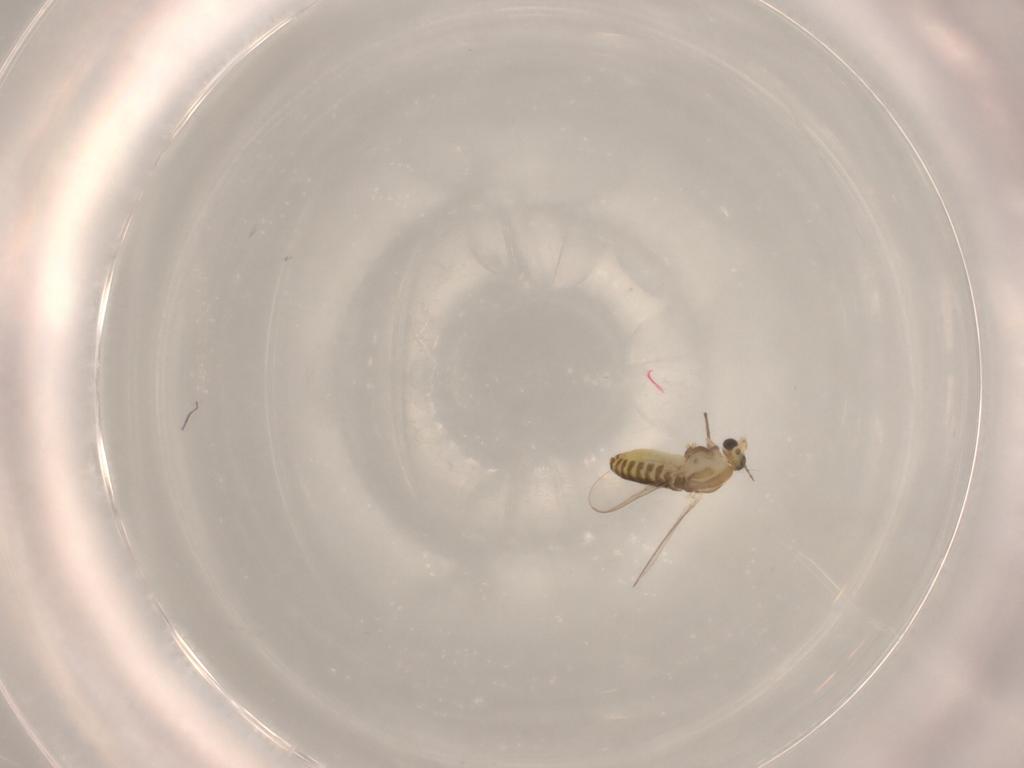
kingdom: Animalia
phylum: Arthropoda
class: Insecta
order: Diptera
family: Chironomidae
